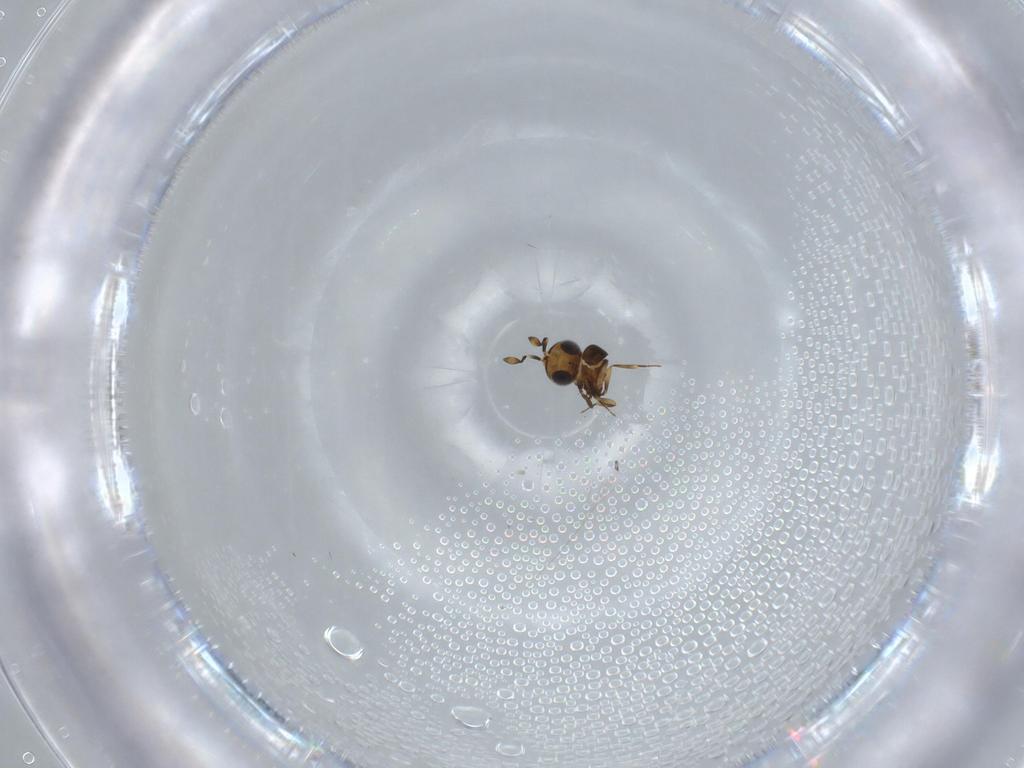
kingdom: Animalia
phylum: Arthropoda
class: Insecta
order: Hymenoptera
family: Scelionidae
